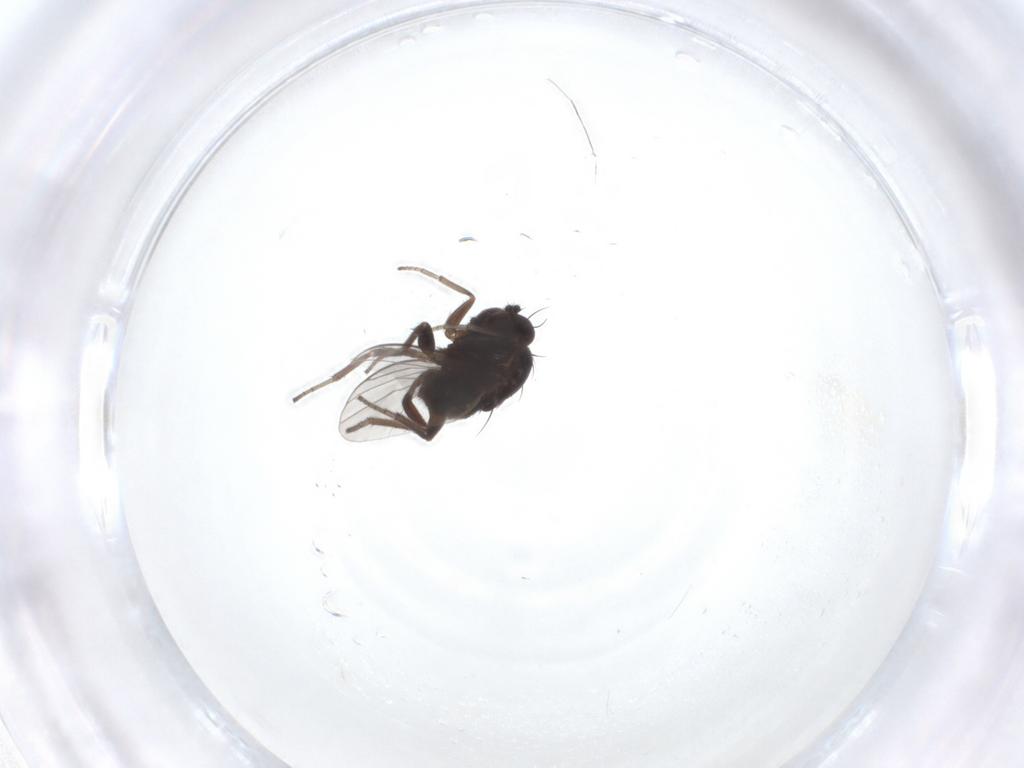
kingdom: Animalia
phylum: Arthropoda
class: Insecta
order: Diptera
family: Dolichopodidae
